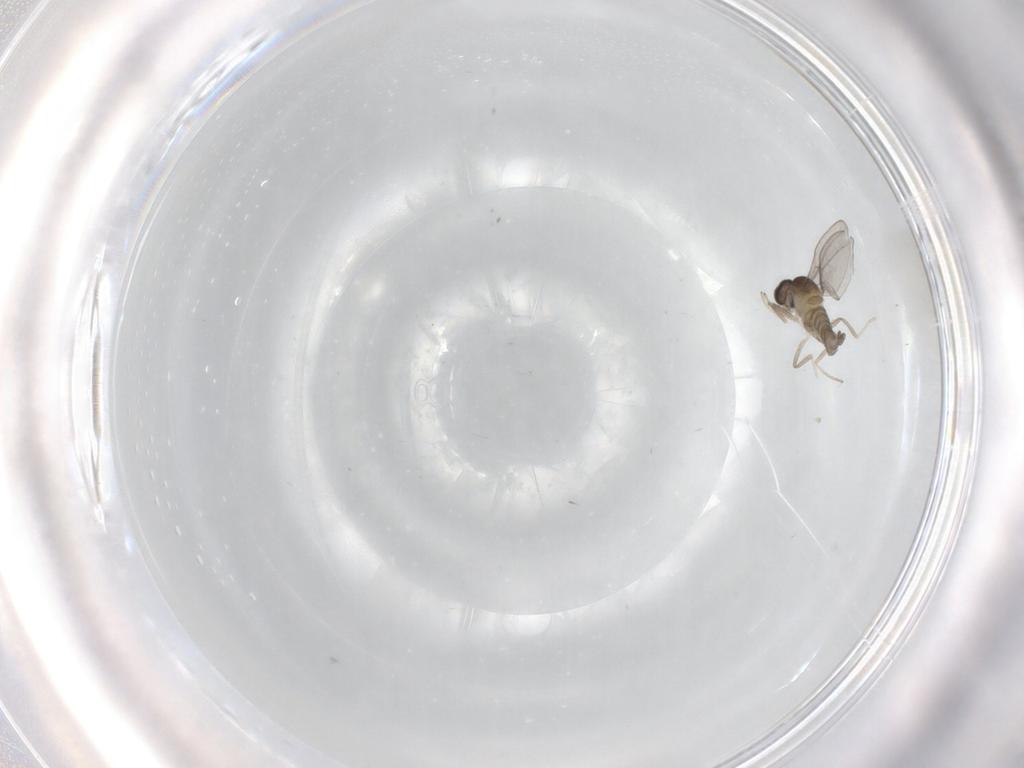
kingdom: Animalia
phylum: Arthropoda
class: Insecta
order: Diptera
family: Cecidomyiidae
